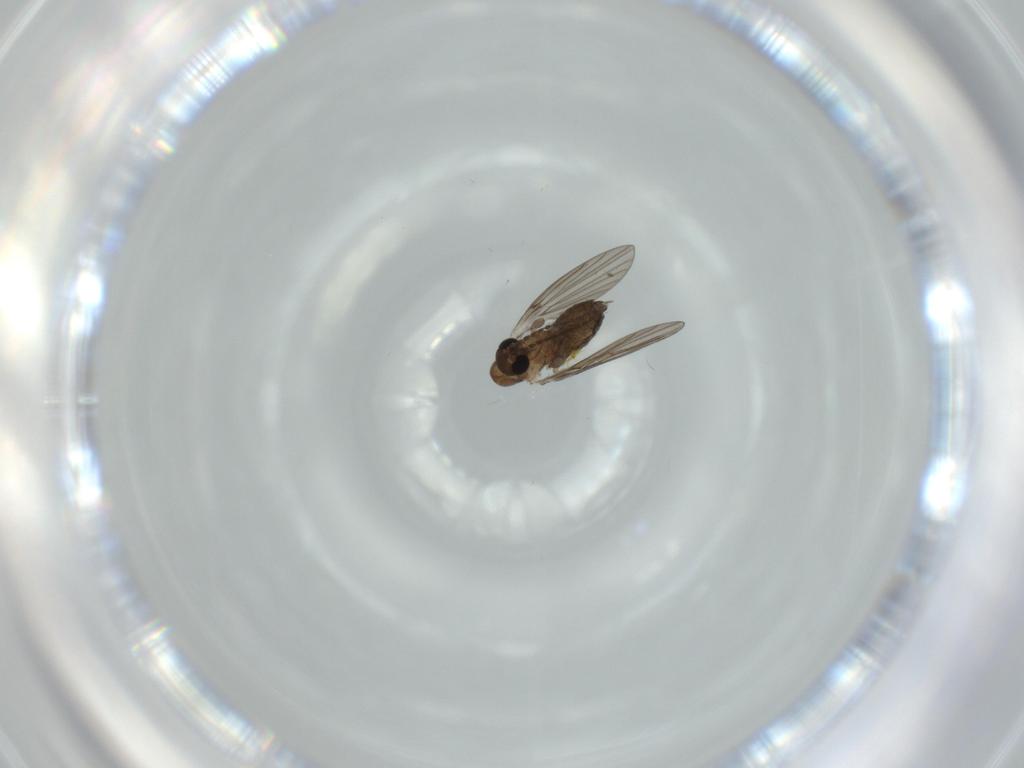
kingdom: Animalia
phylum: Arthropoda
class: Insecta
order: Diptera
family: Psychodidae
